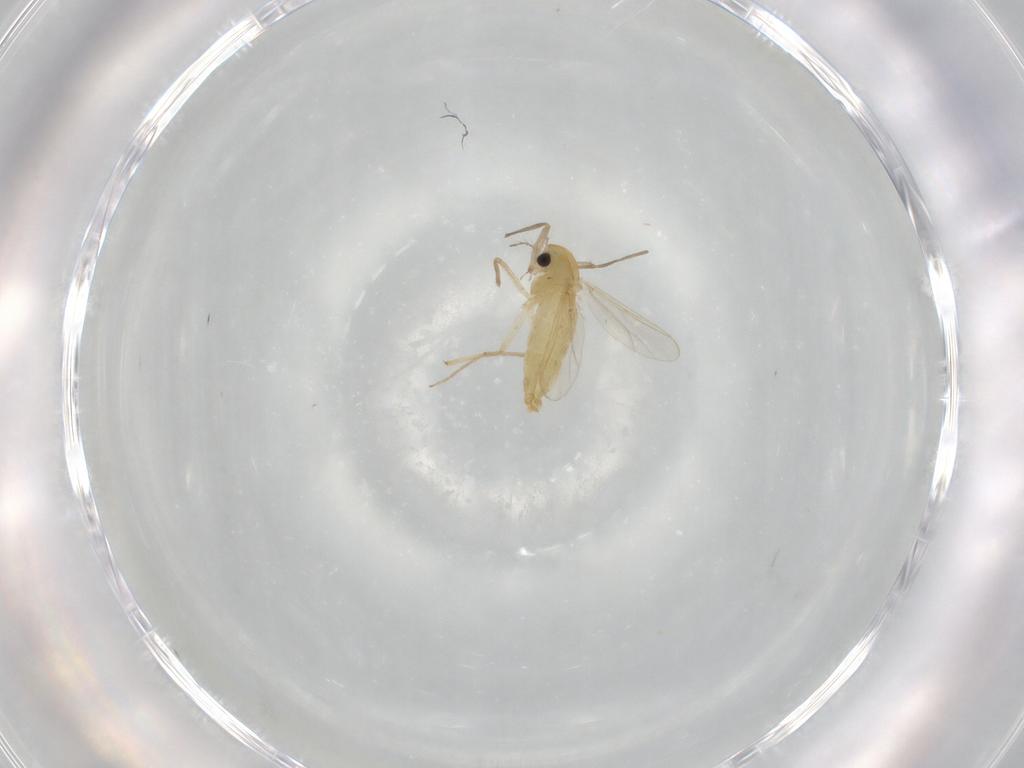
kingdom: Animalia
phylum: Arthropoda
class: Insecta
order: Diptera
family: Chironomidae
